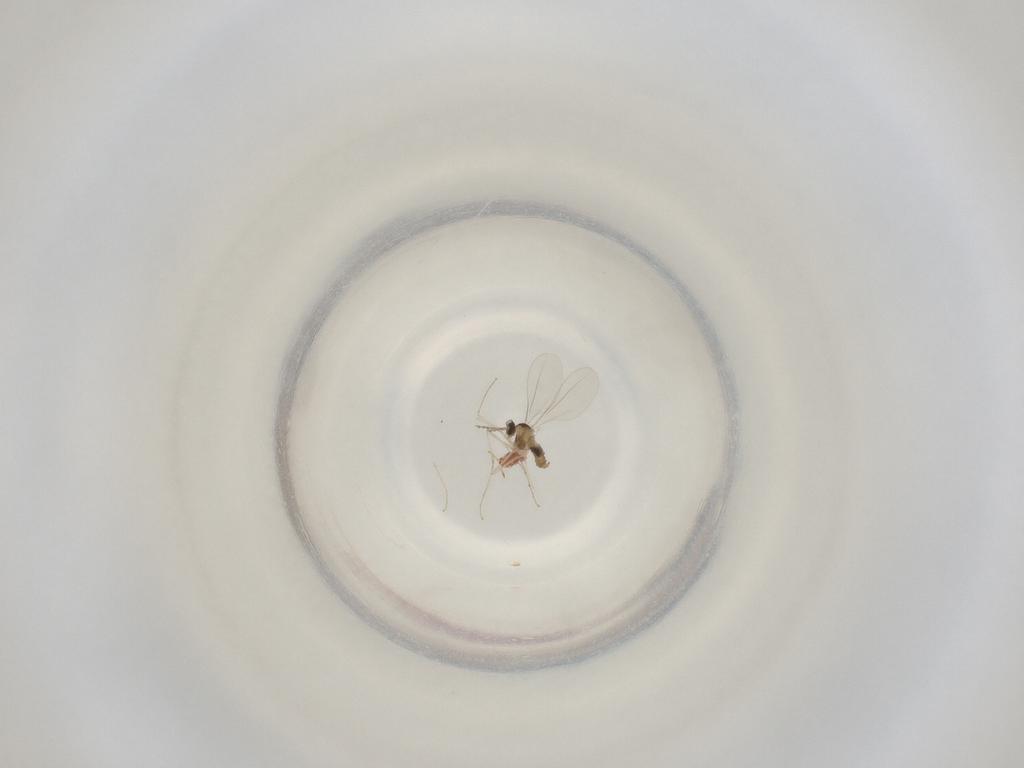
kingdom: Animalia
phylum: Arthropoda
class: Insecta
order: Diptera
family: Cecidomyiidae
